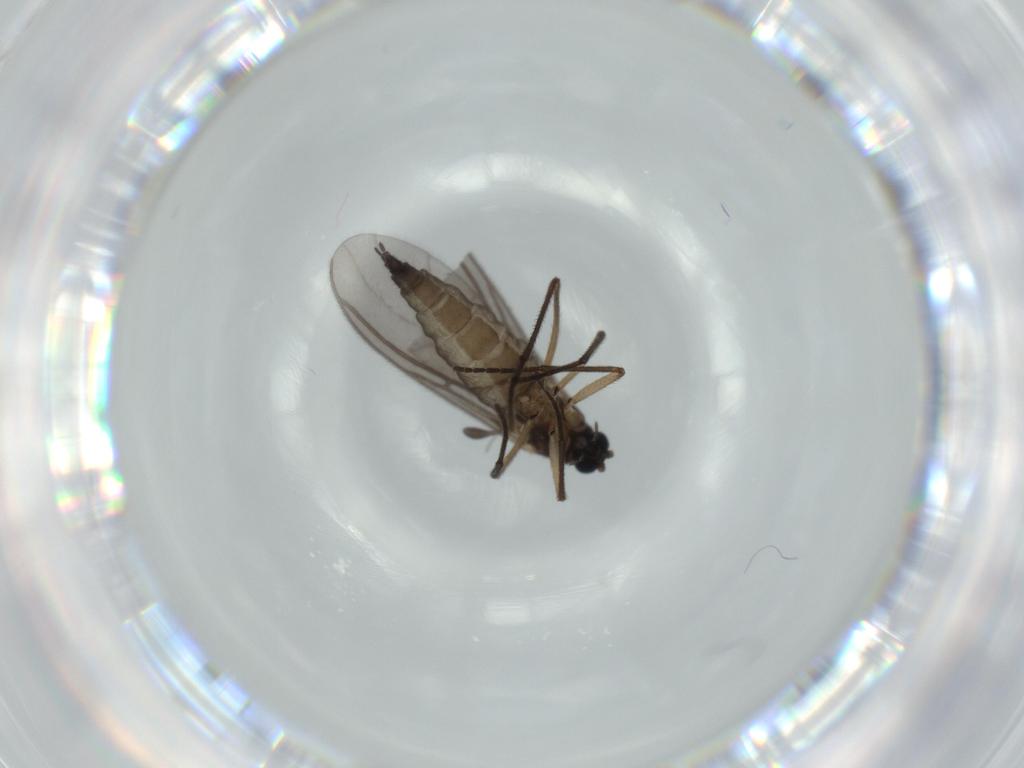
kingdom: Animalia
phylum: Arthropoda
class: Insecta
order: Diptera
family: Sciaridae
